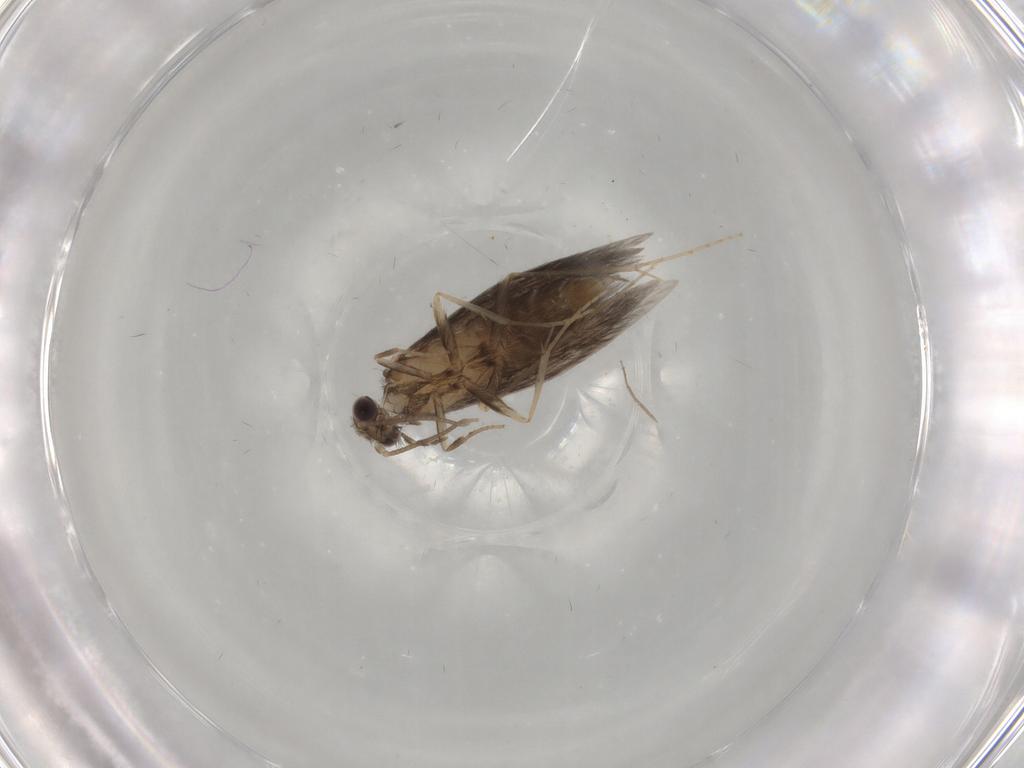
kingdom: Animalia
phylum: Arthropoda
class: Insecta
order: Trichoptera
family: Hydroptilidae
